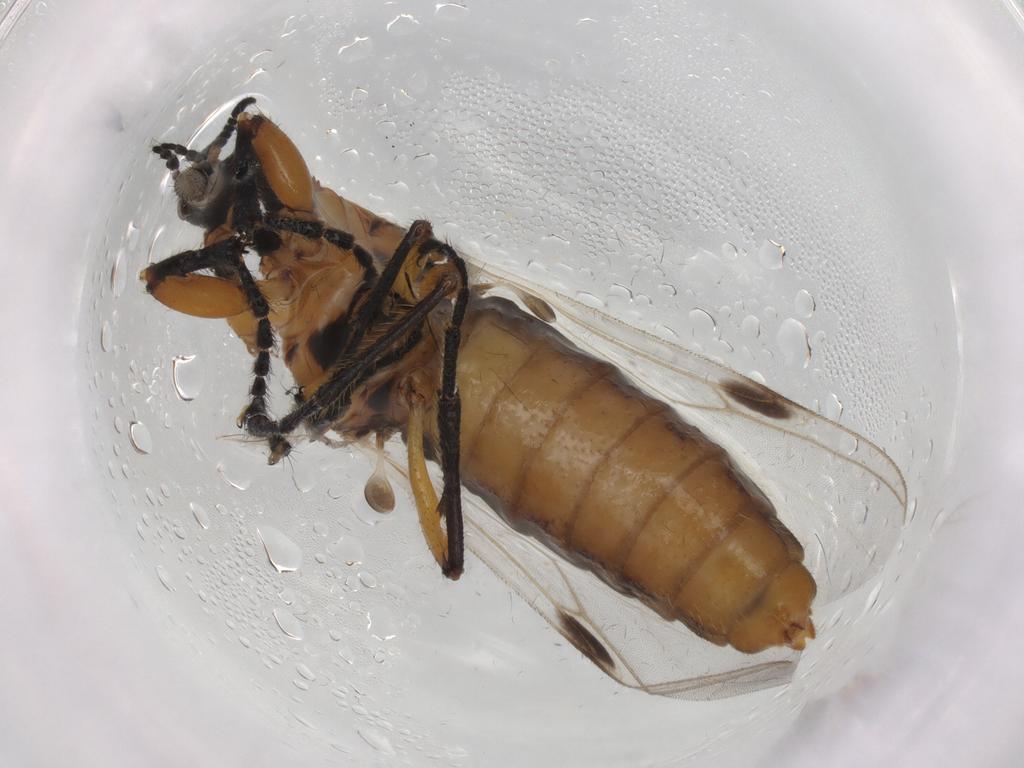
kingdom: Animalia
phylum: Arthropoda
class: Insecta
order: Diptera
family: Bibionidae
